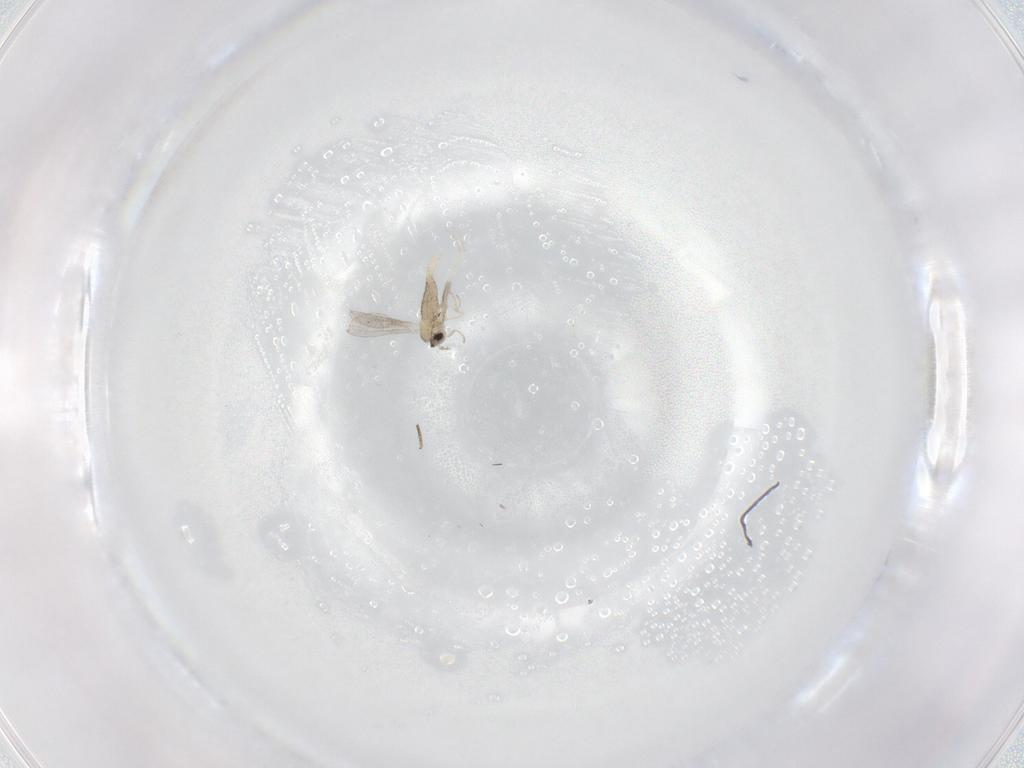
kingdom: Animalia
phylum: Arthropoda
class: Insecta
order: Diptera
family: Cecidomyiidae
